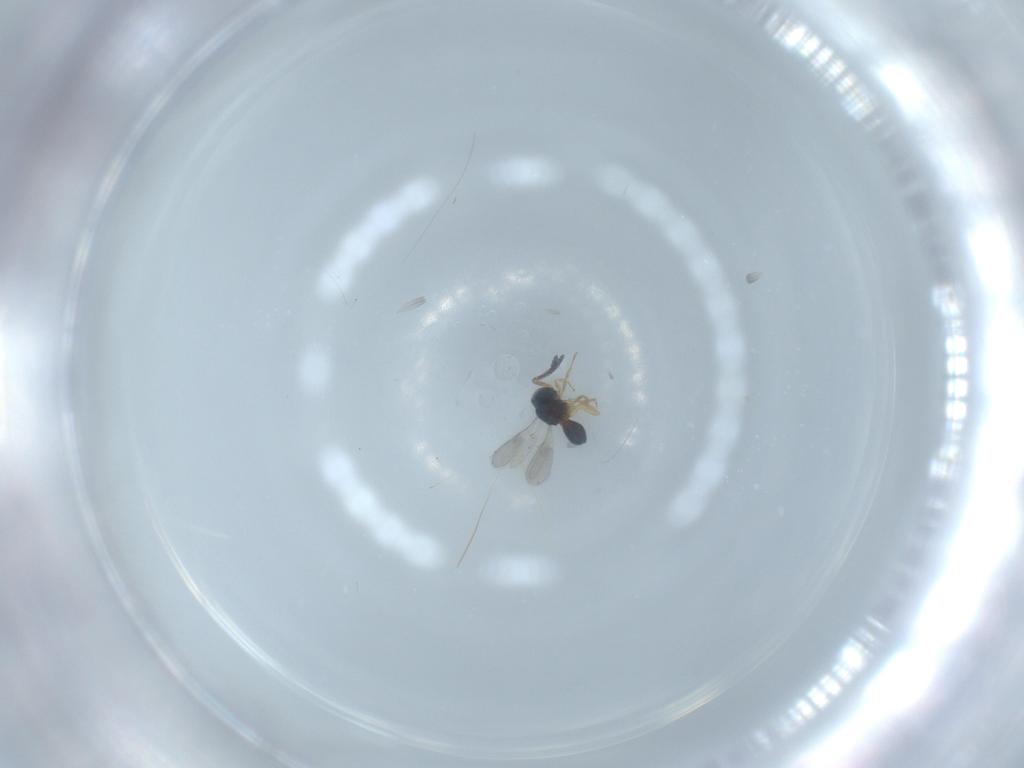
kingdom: Animalia
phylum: Arthropoda
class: Insecta
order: Hymenoptera
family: Scelionidae
